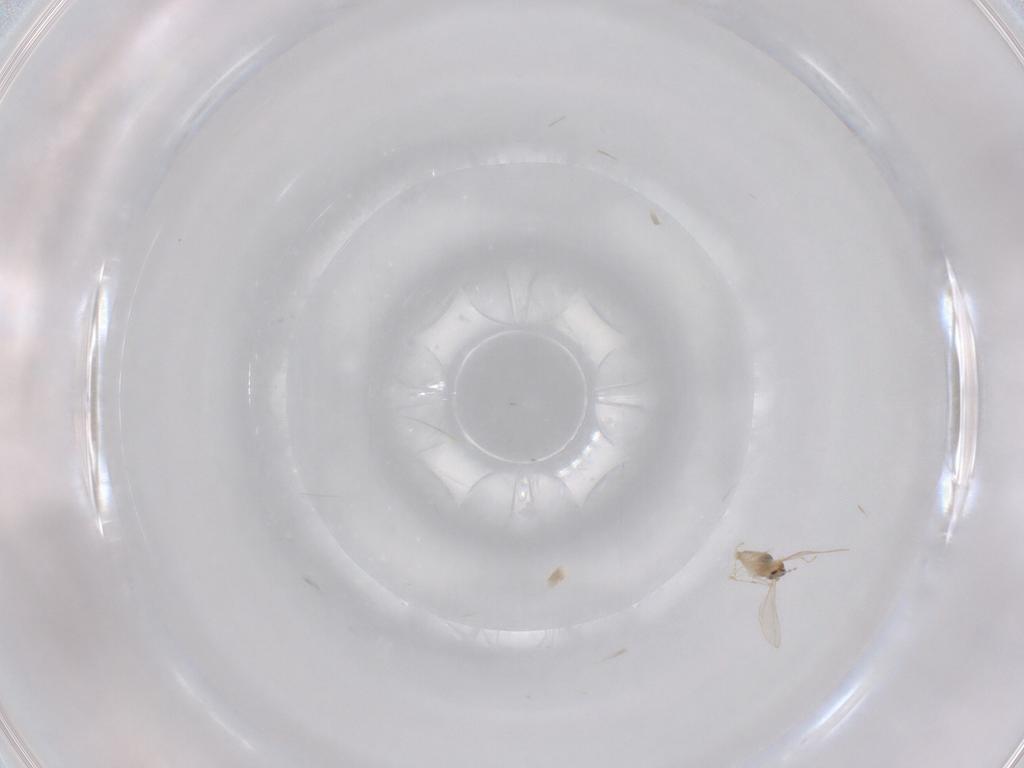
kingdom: Animalia
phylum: Arthropoda
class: Insecta
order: Diptera
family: Cecidomyiidae
